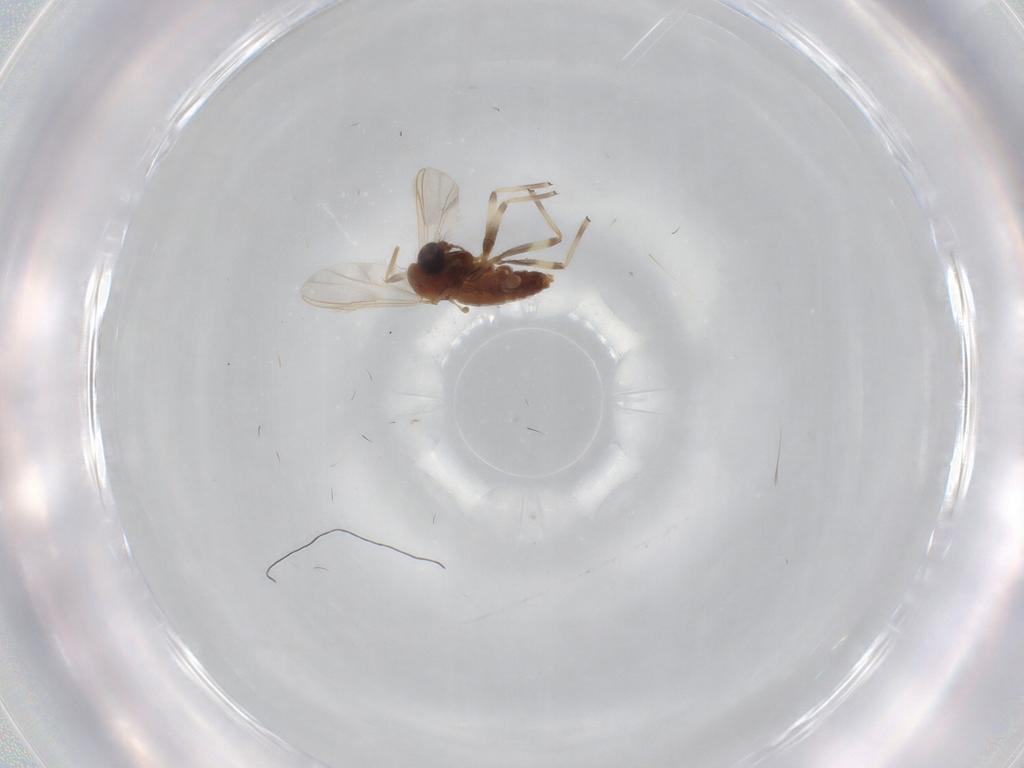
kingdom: Animalia
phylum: Arthropoda
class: Insecta
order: Diptera
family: Chironomidae
